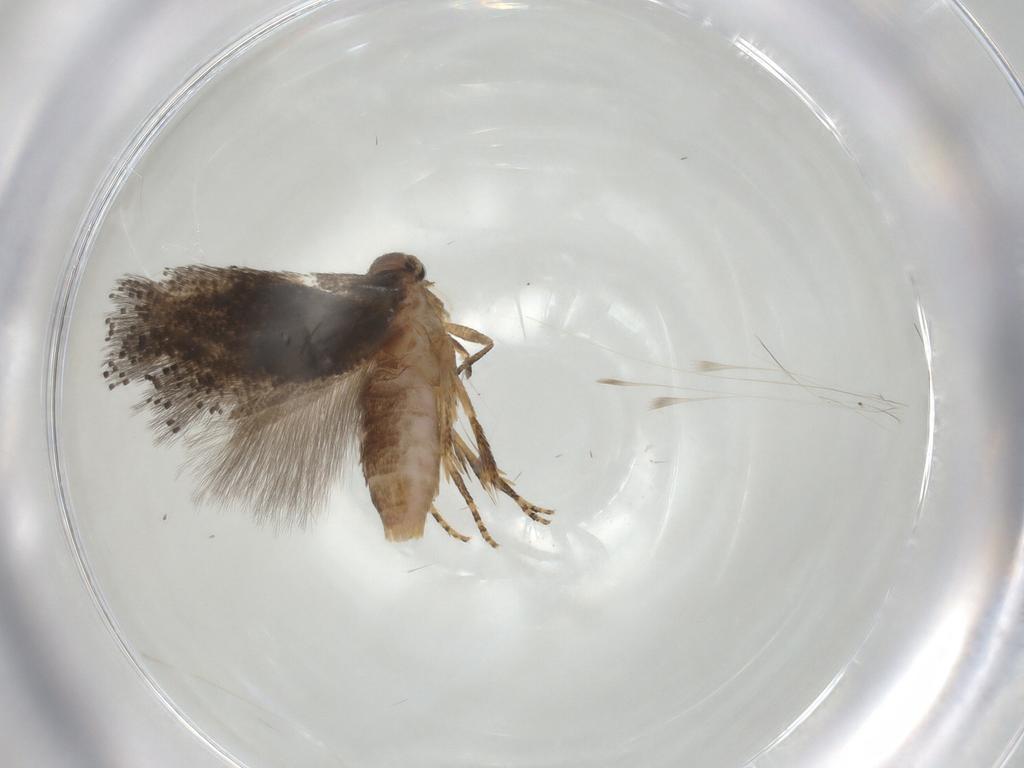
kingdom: Animalia
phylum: Arthropoda
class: Insecta
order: Lepidoptera
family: Elachistidae
